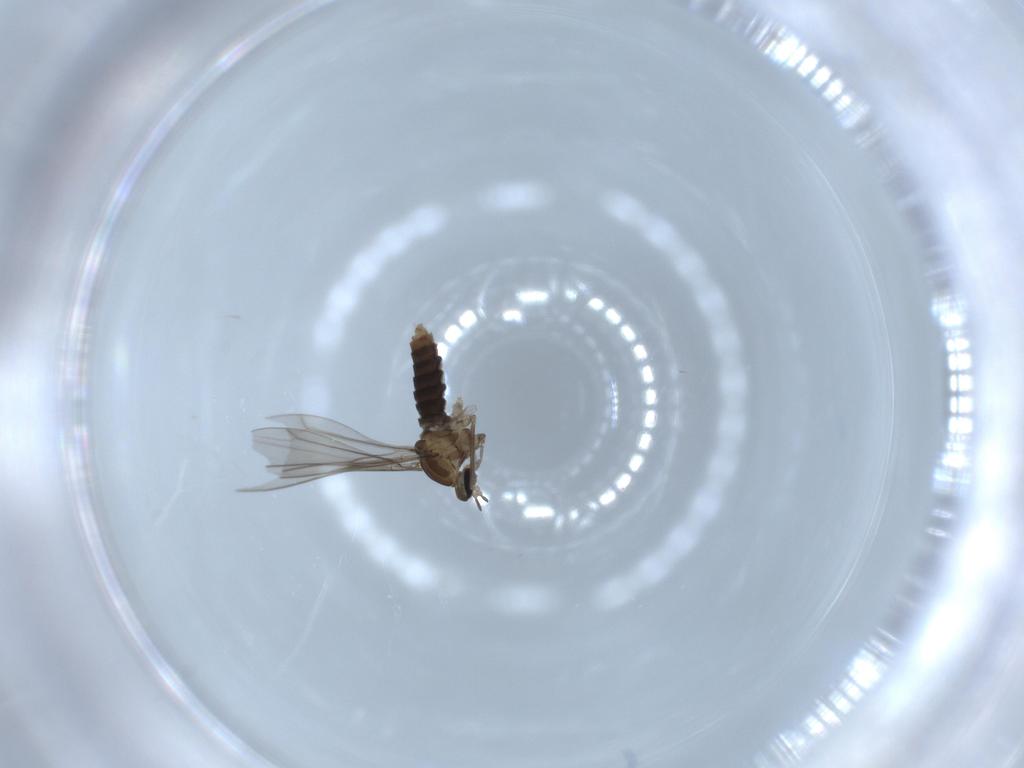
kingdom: Animalia
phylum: Arthropoda
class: Insecta
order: Diptera
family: Cecidomyiidae
